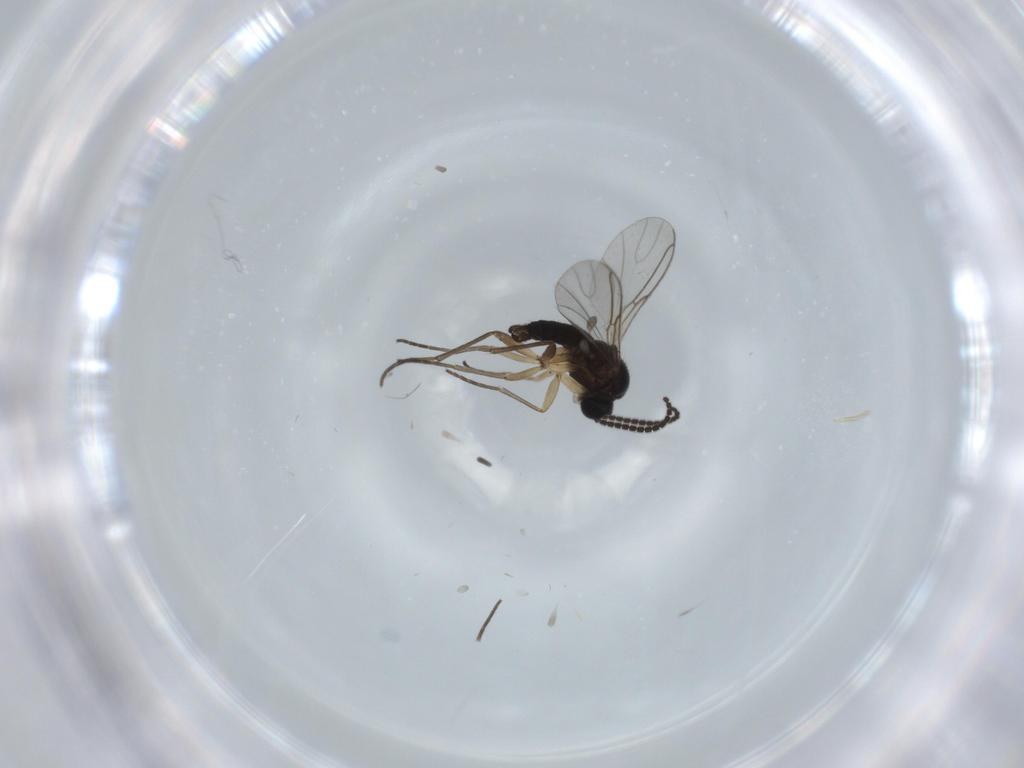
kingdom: Animalia
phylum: Arthropoda
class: Insecta
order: Diptera
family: Sciaridae
